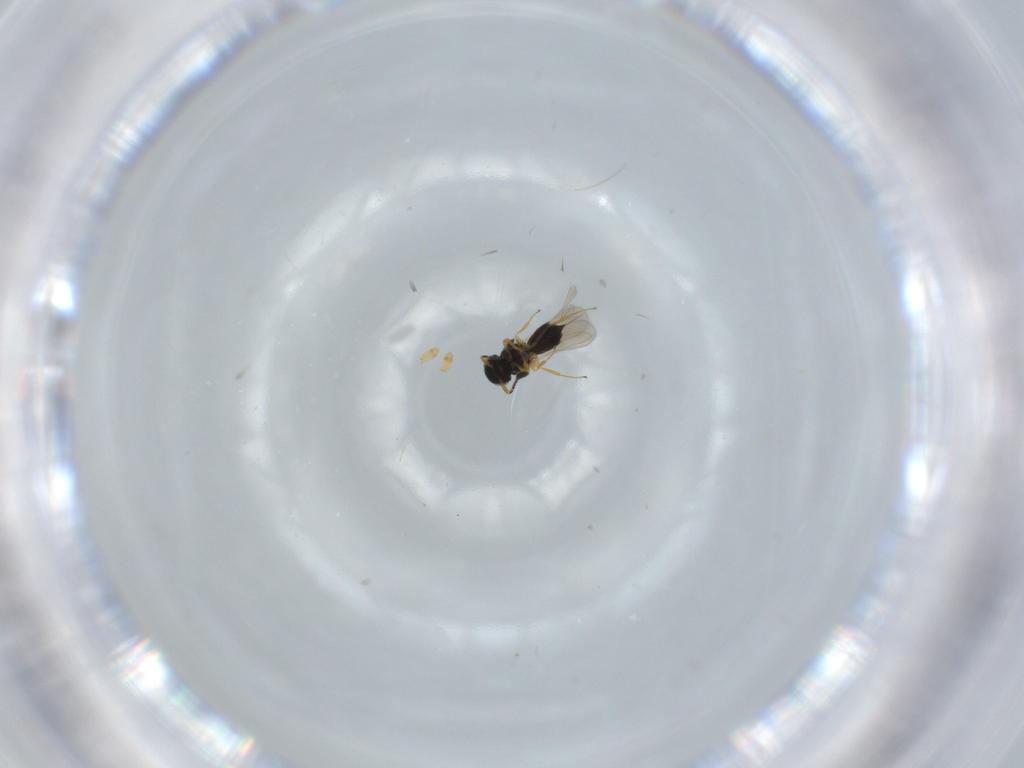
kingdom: Animalia
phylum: Arthropoda
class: Insecta
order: Hymenoptera
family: Scelionidae
